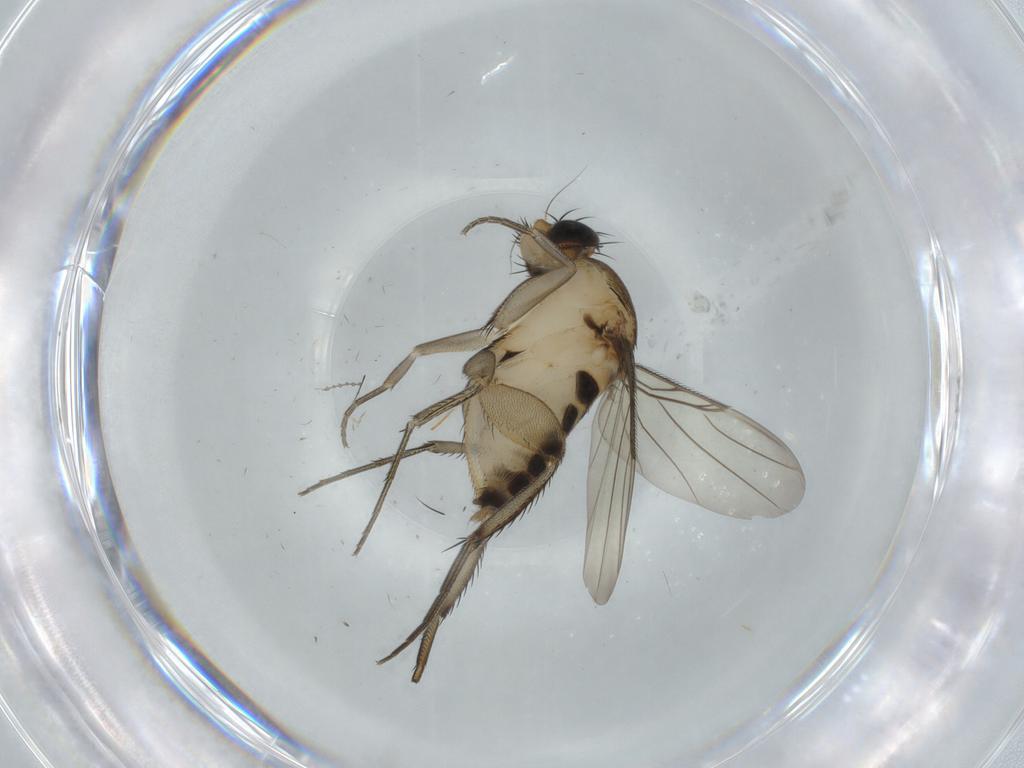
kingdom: Animalia
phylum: Arthropoda
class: Insecta
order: Diptera
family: Phoridae
